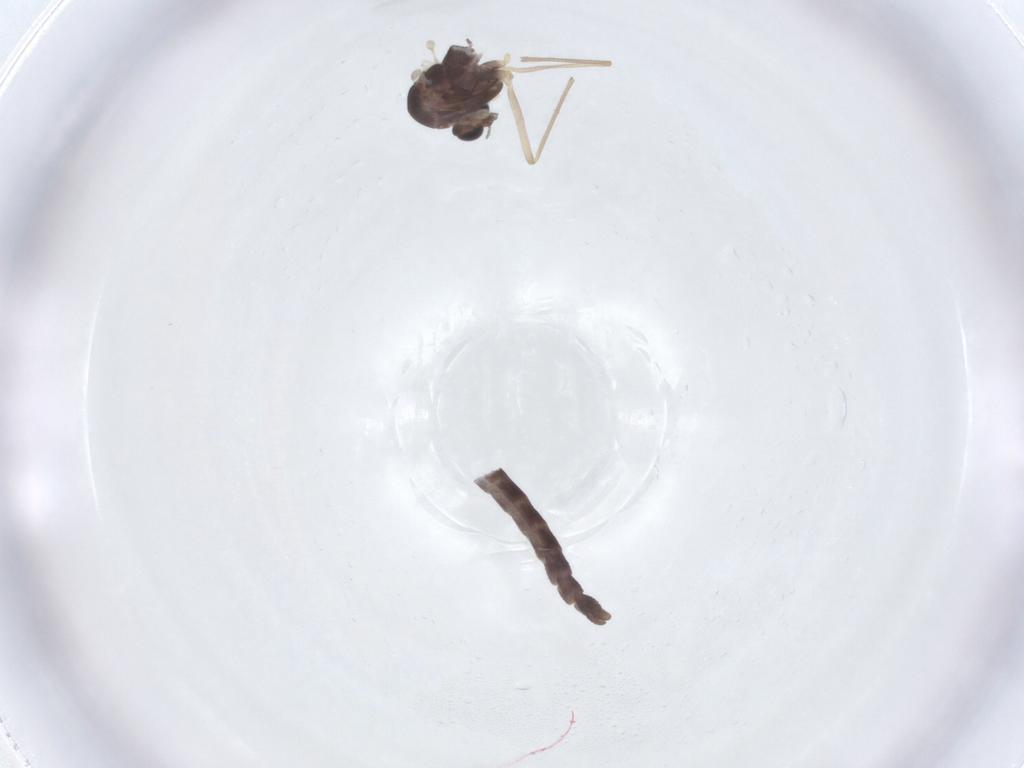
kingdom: Animalia
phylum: Arthropoda
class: Insecta
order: Diptera
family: Chironomidae
